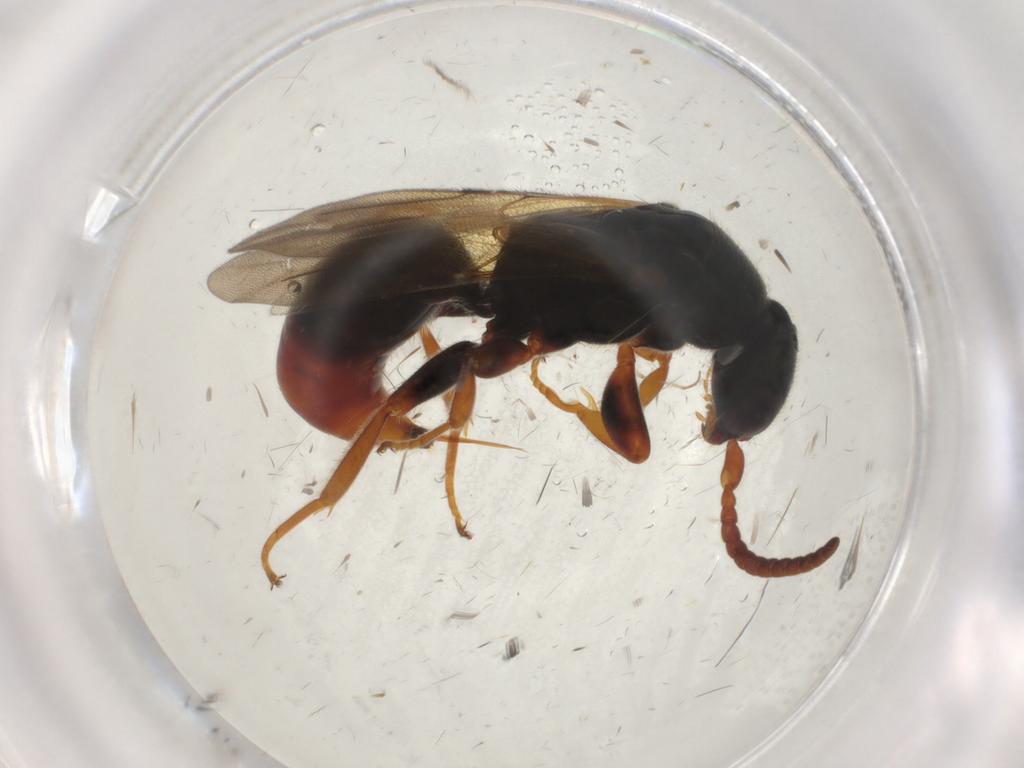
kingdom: Animalia
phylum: Arthropoda
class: Insecta
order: Hymenoptera
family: Bethylidae
